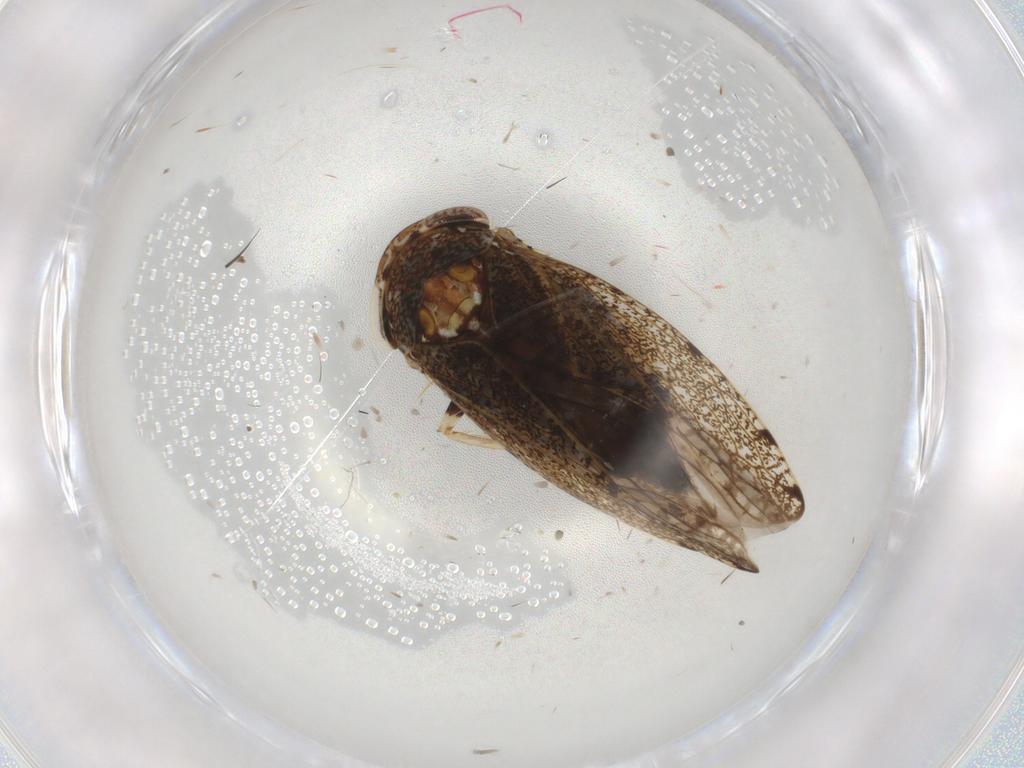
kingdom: Animalia
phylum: Arthropoda
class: Insecta
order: Hemiptera
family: Cicadellidae
